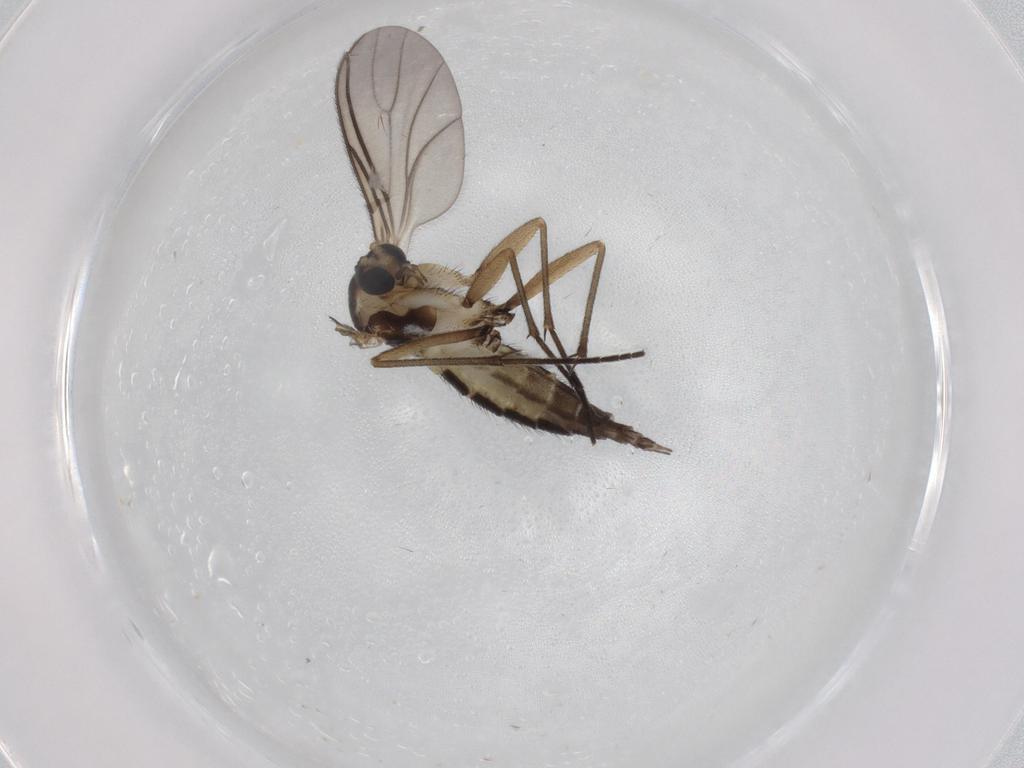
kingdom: Animalia
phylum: Arthropoda
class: Insecta
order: Diptera
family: Sciaridae
